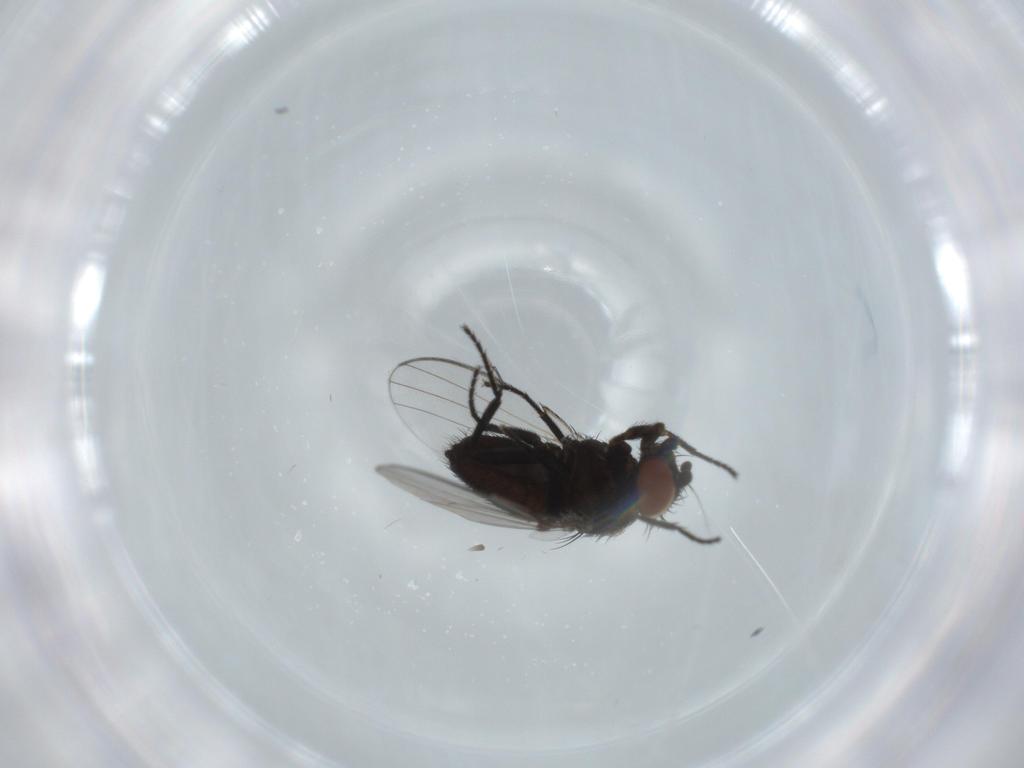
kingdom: Animalia
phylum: Arthropoda
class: Insecta
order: Diptera
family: Milichiidae
